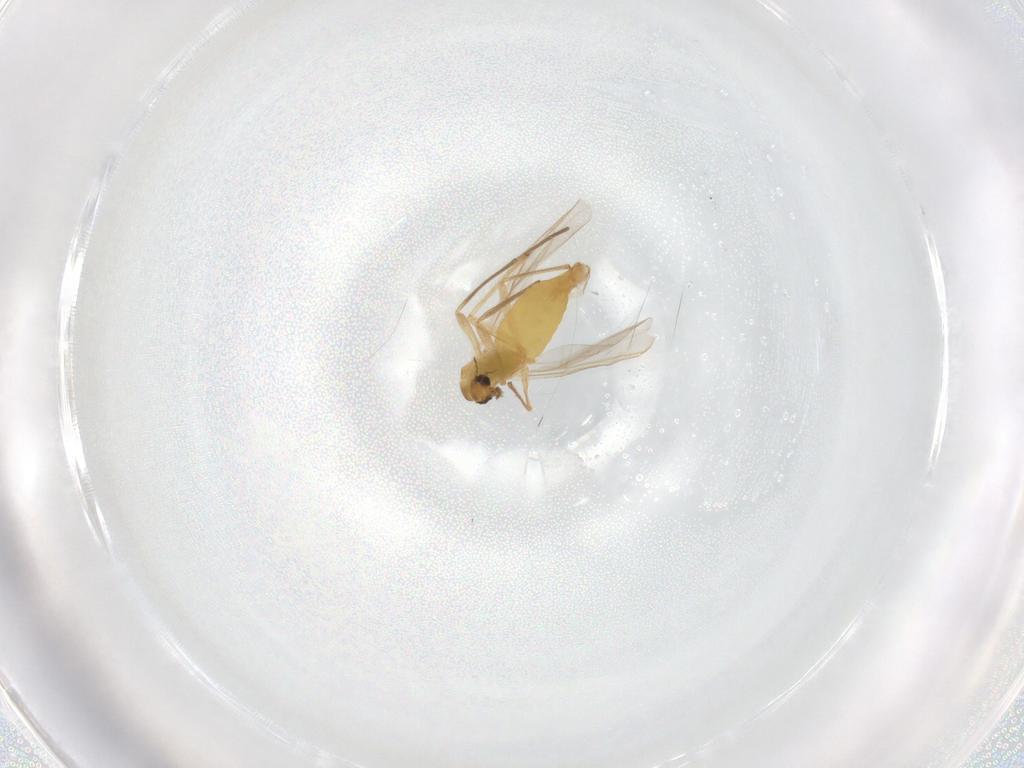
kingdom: Animalia
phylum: Arthropoda
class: Insecta
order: Diptera
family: Chironomidae
